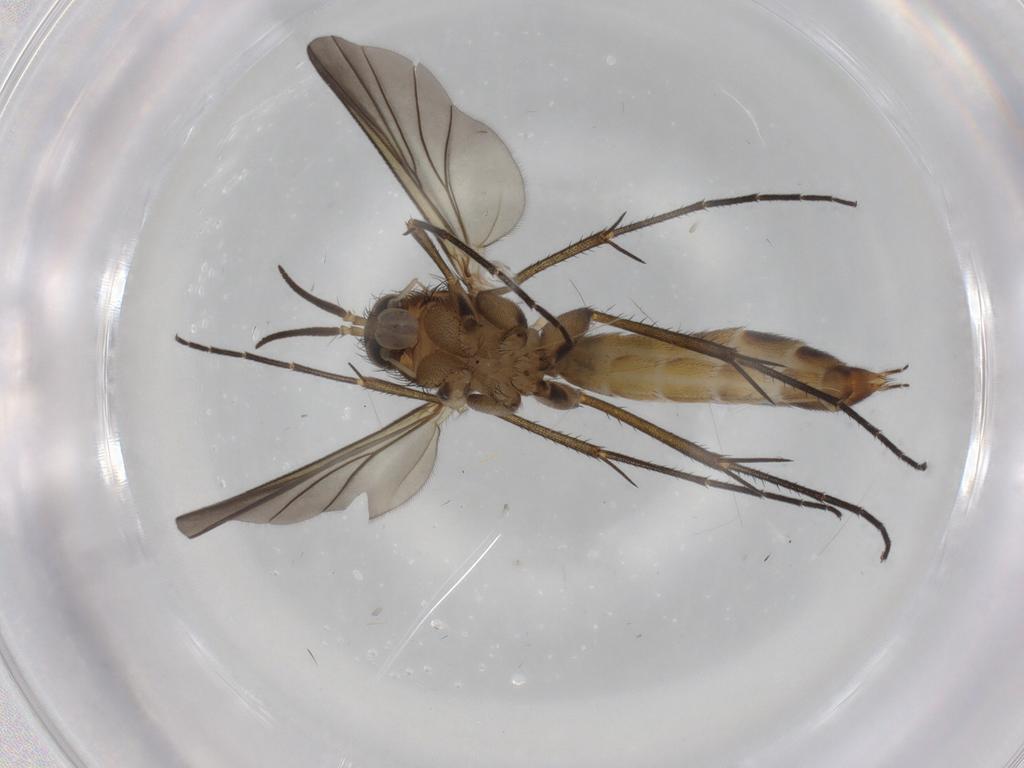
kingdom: Animalia
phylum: Arthropoda
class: Insecta
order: Diptera
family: Mycetophilidae
